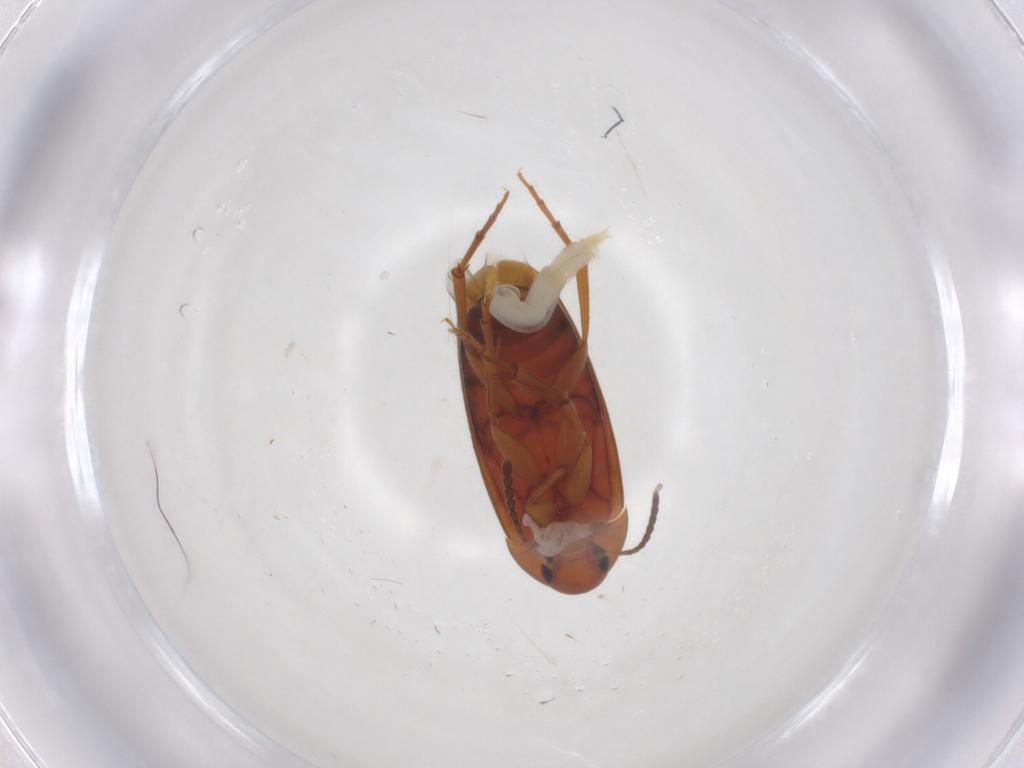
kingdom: Animalia
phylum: Arthropoda
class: Insecta
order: Coleoptera
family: Scraptiidae
